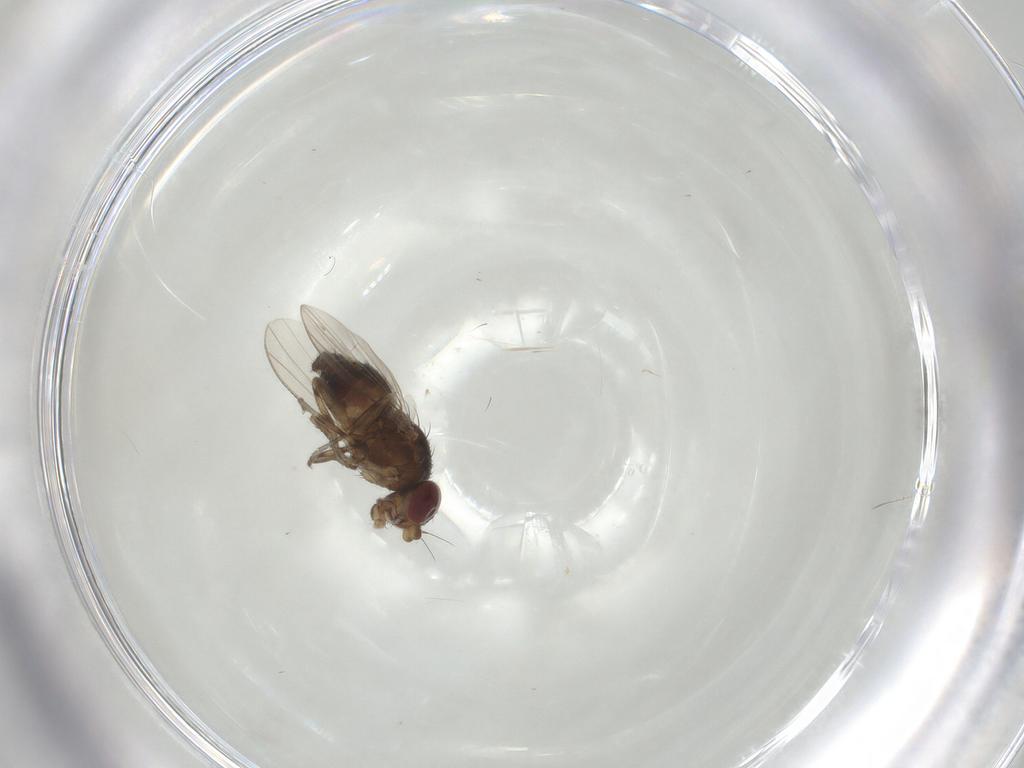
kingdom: Animalia
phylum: Arthropoda
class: Insecta
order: Diptera
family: Heleomyzidae
